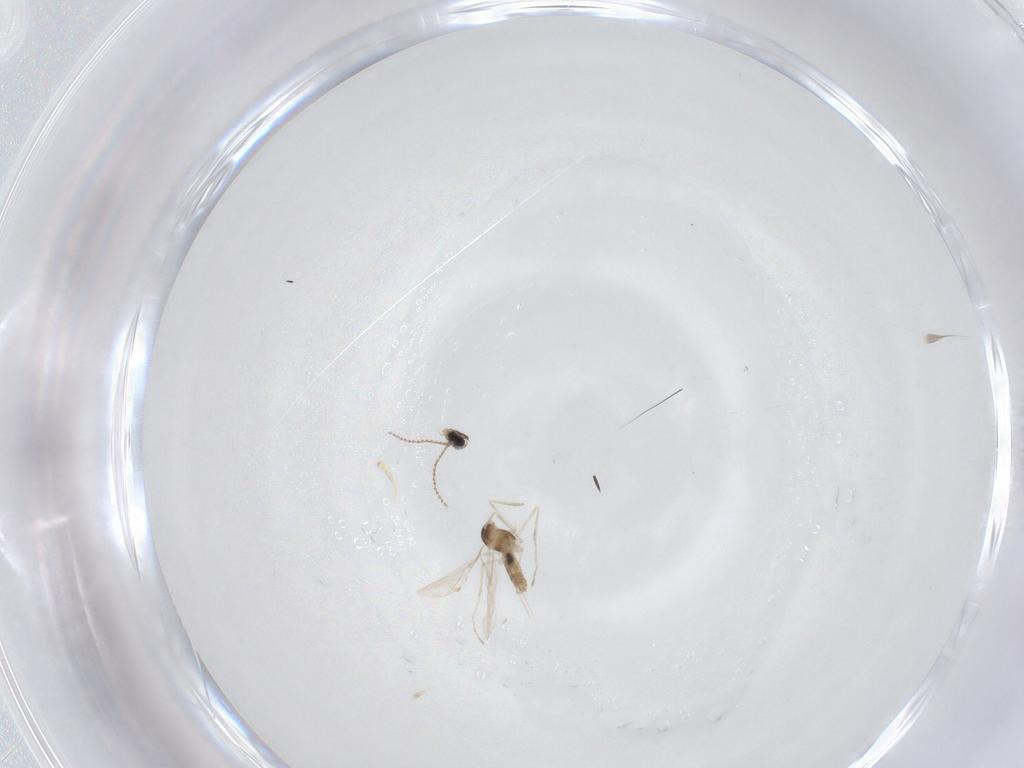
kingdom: Animalia
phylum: Arthropoda
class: Insecta
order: Diptera
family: Cecidomyiidae
